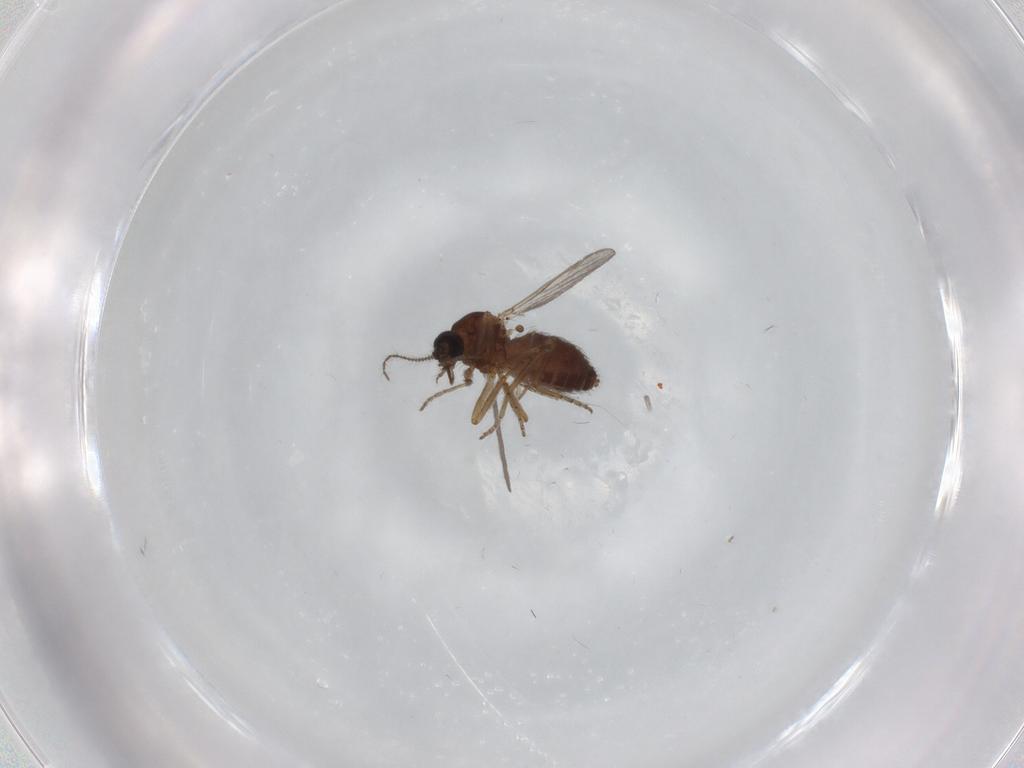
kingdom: Animalia
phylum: Arthropoda
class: Insecta
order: Diptera
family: Ceratopogonidae
